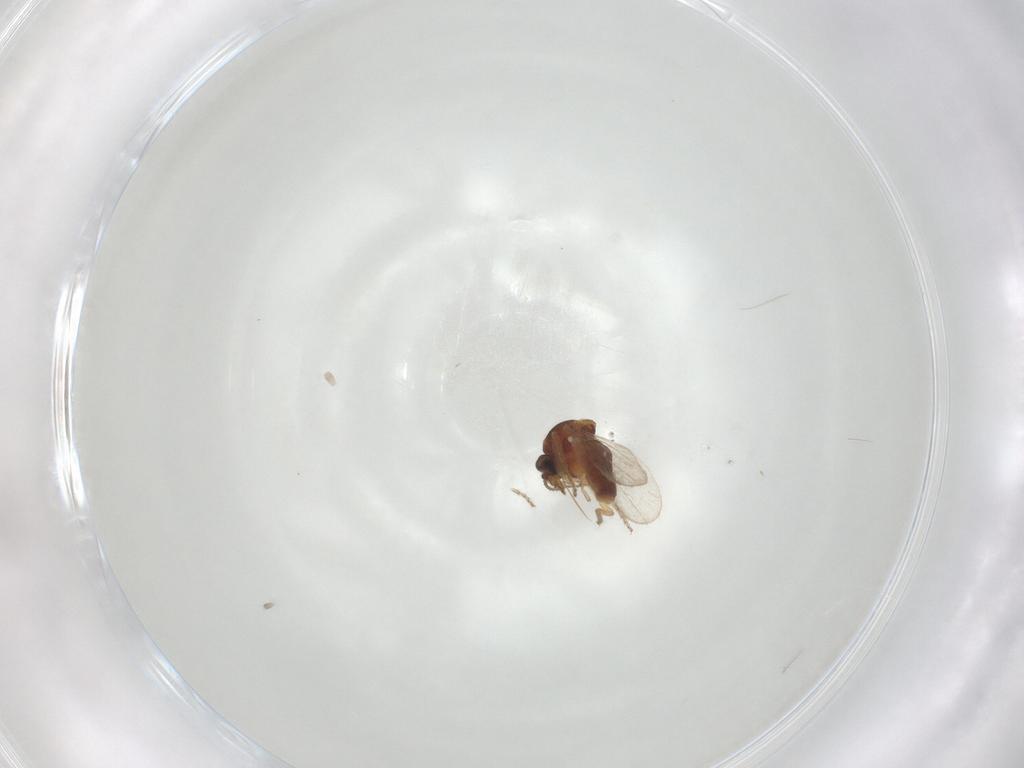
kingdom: Animalia
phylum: Arthropoda
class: Insecta
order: Diptera
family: Ceratopogonidae
